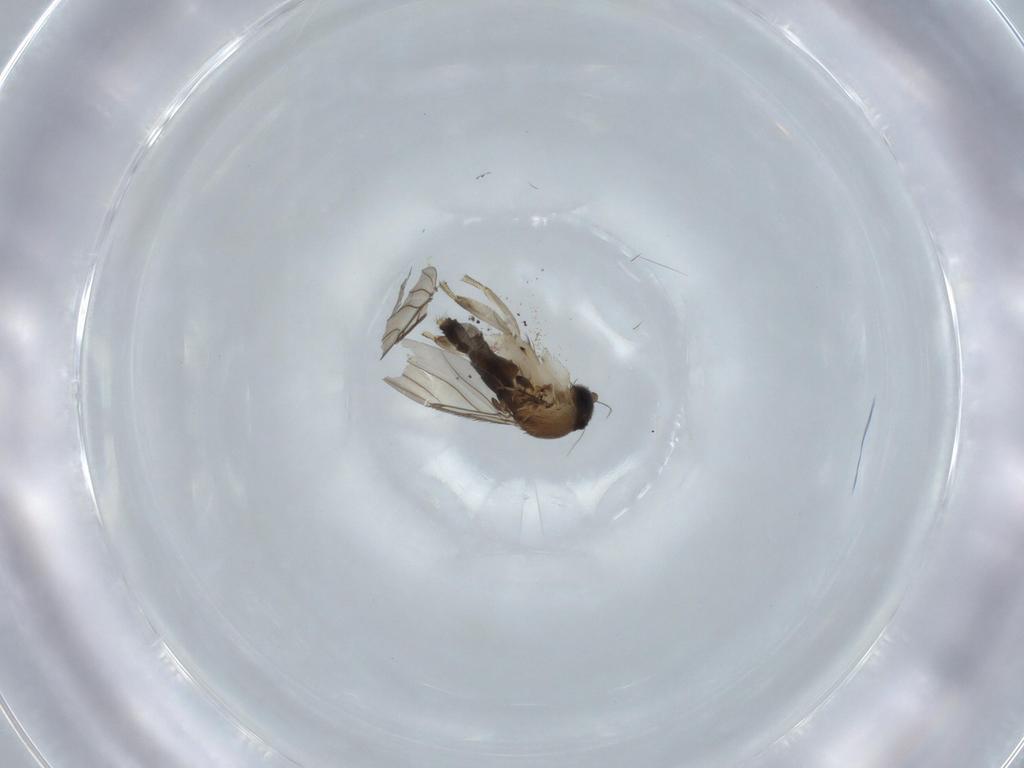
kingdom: Animalia
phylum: Arthropoda
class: Insecta
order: Diptera
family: Phoridae
